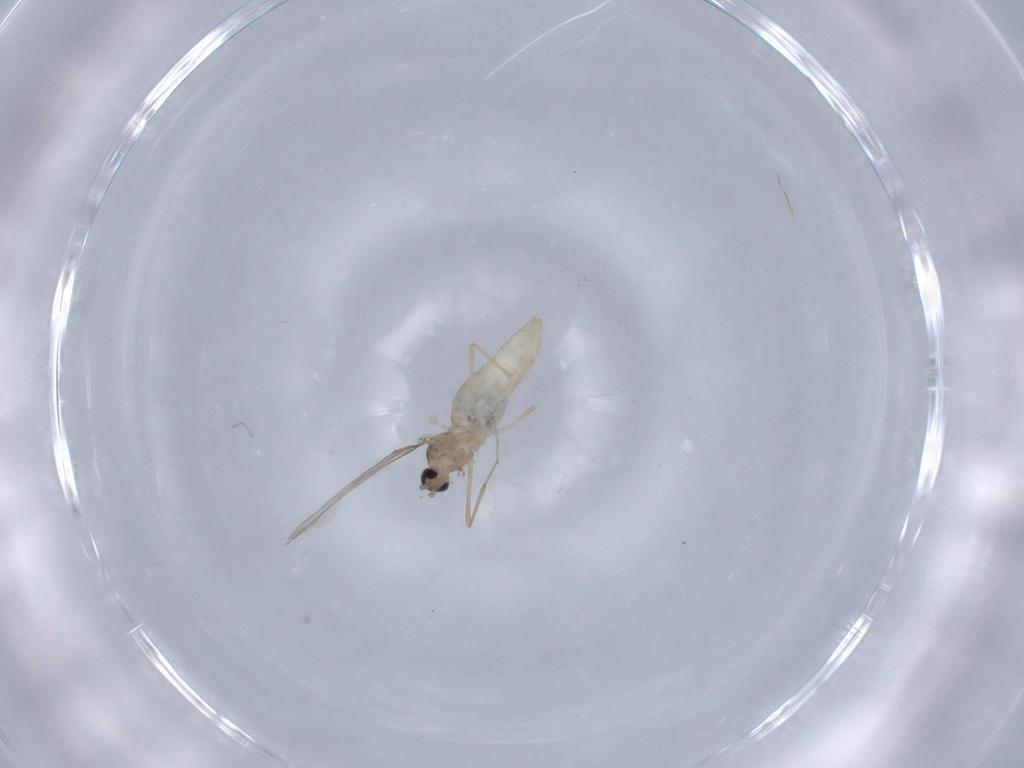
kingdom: Animalia
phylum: Arthropoda
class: Insecta
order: Diptera
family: Cecidomyiidae
